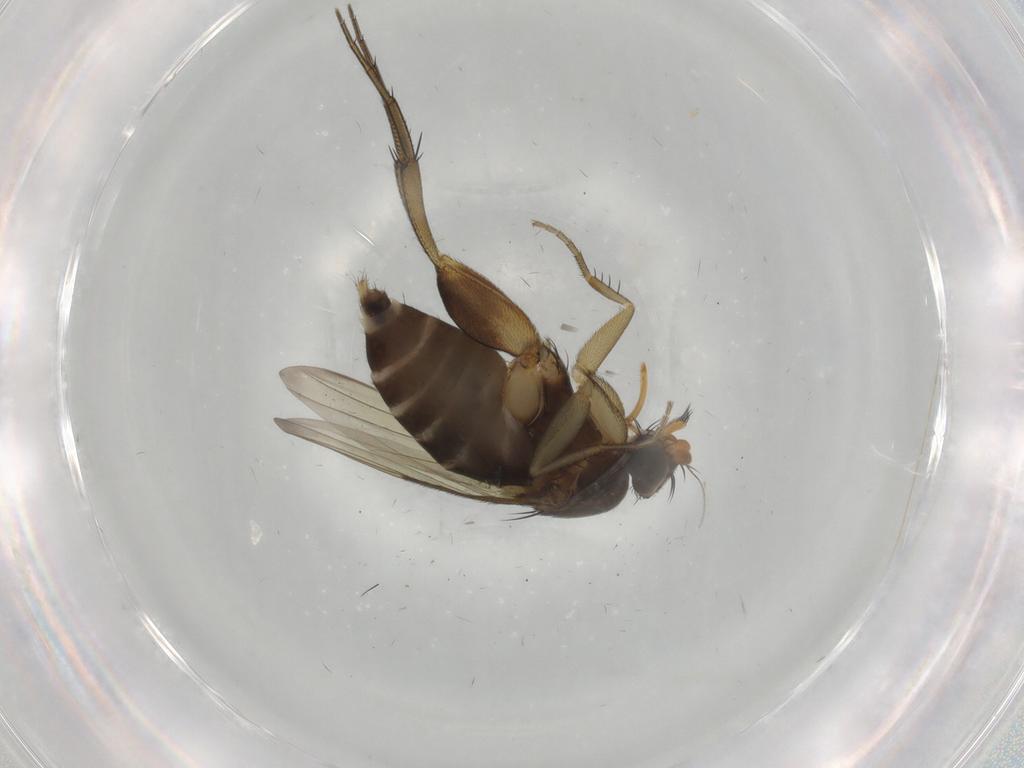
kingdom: Animalia
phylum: Arthropoda
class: Insecta
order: Diptera
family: Phoridae
